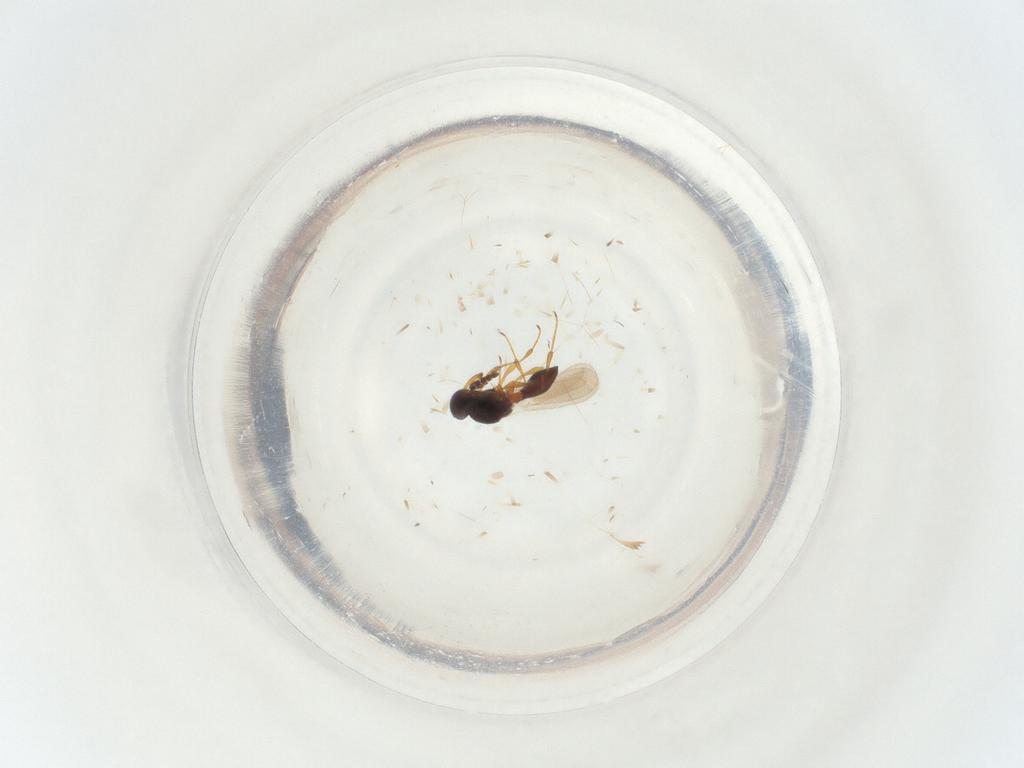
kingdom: Animalia
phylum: Arthropoda
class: Insecta
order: Hymenoptera
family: Platygastridae
